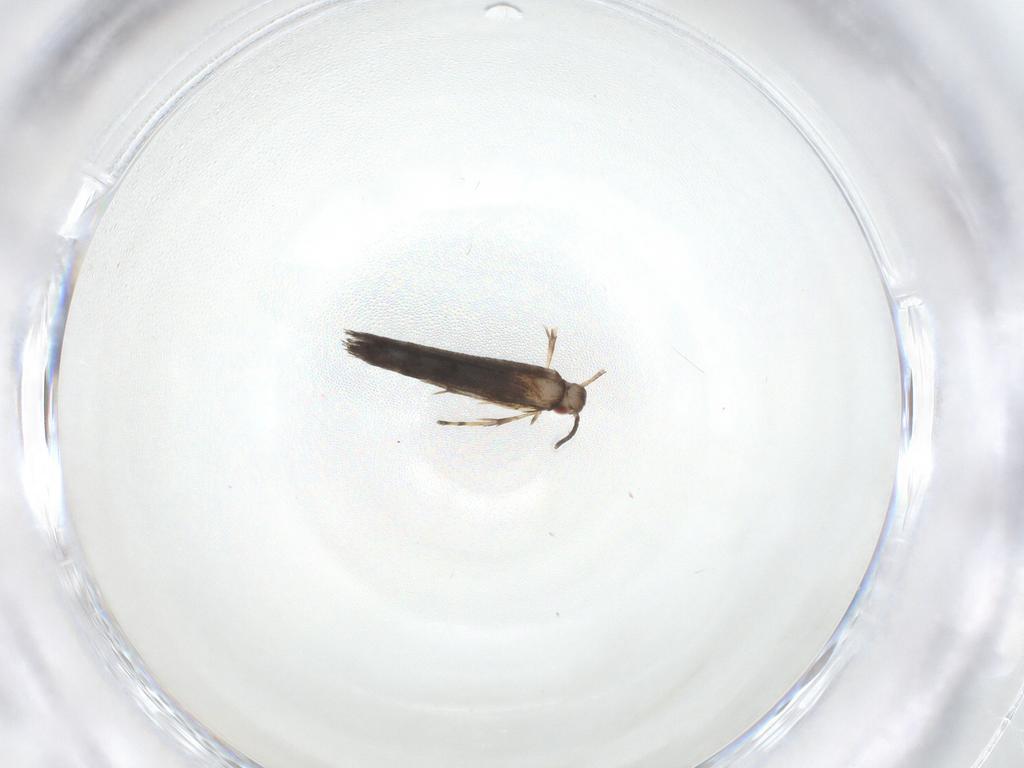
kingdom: Animalia
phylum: Arthropoda
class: Insecta
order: Lepidoptera
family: Gracillariidae
